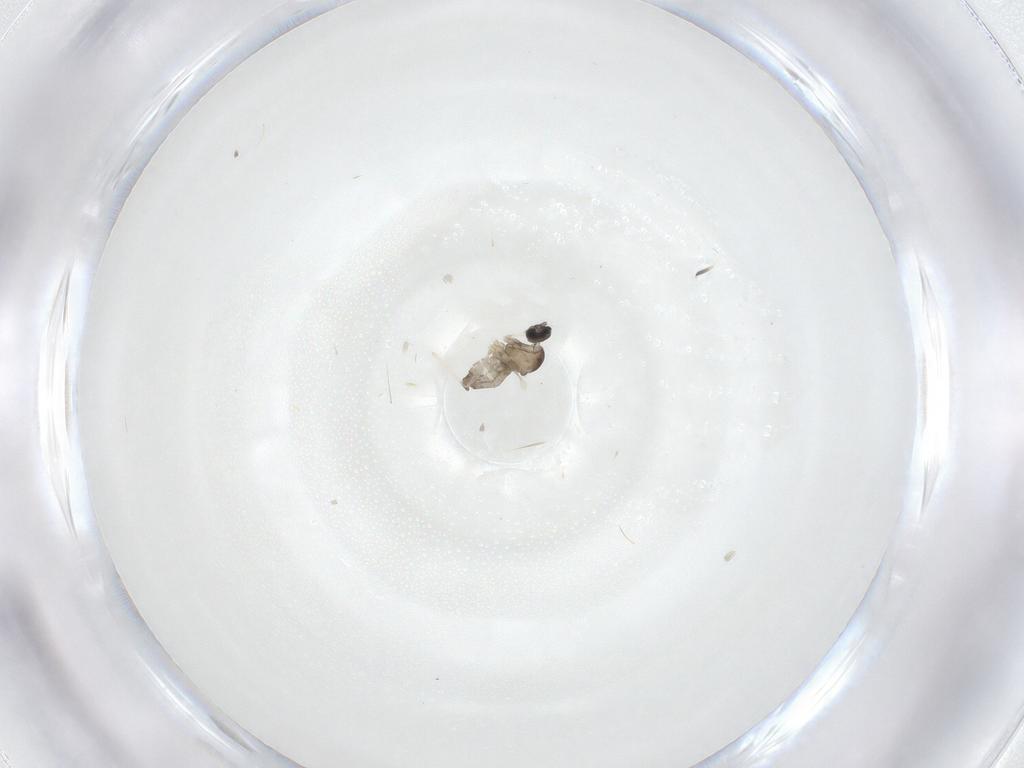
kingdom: Animalia
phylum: Arthropoda
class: Insecta
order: Diptera
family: Cecidomyiidae
